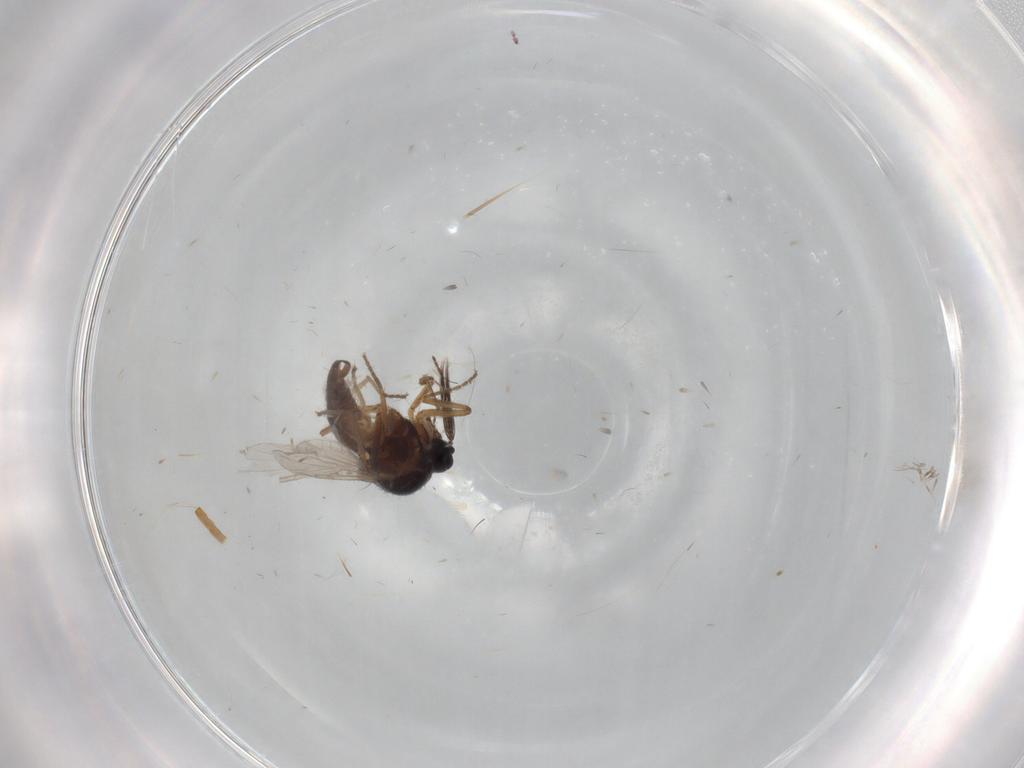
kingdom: Animalia
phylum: Arthropoda
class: Insecta
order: Diptera
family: Ceratopogonidae
